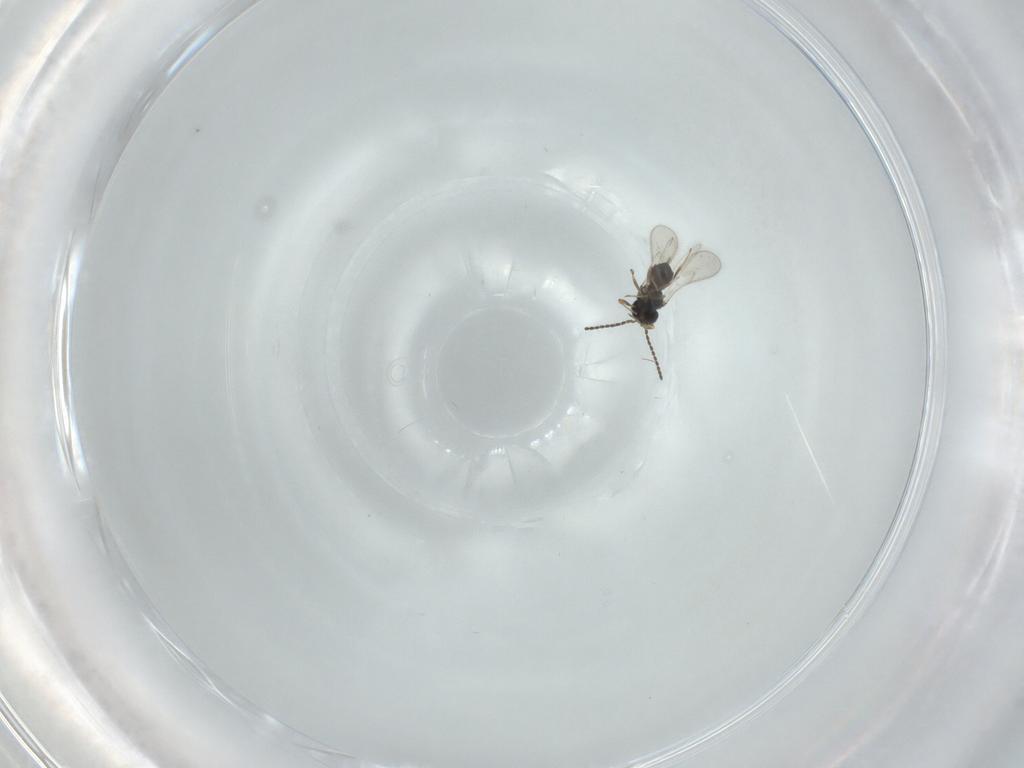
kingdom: Animalia
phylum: Arthropoda
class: Insecta
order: Hymenoptera
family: Scelionidae
